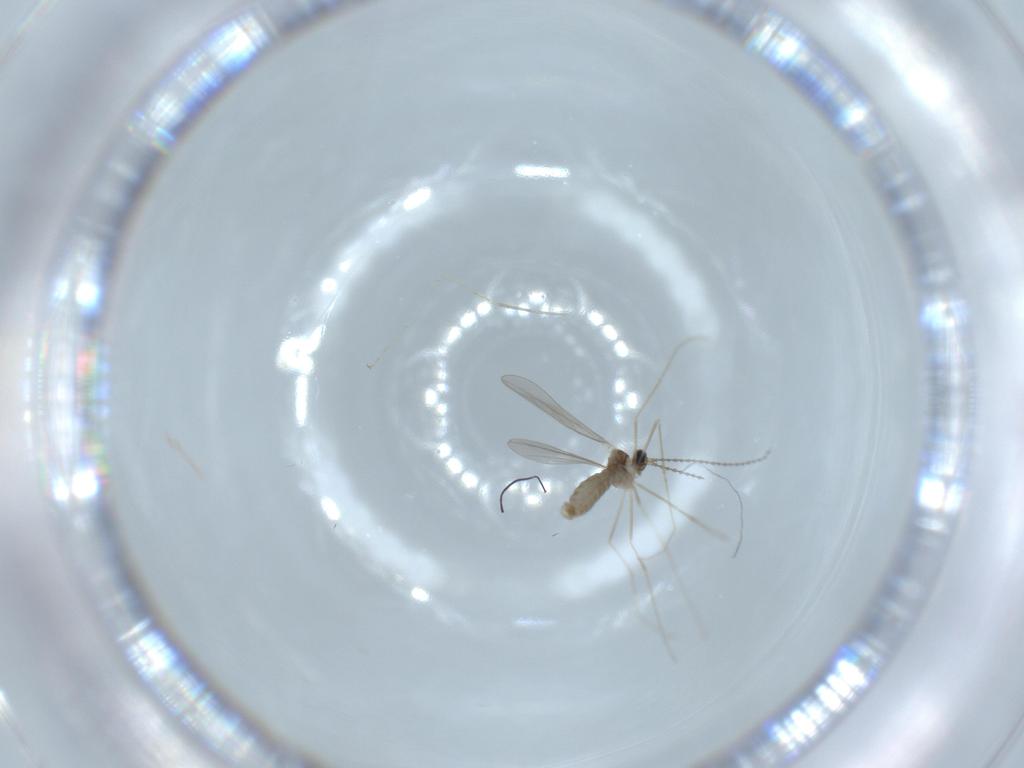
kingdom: Animalia
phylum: Arthropoda
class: Insecta
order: Diptera
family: Cecidomyiidae
